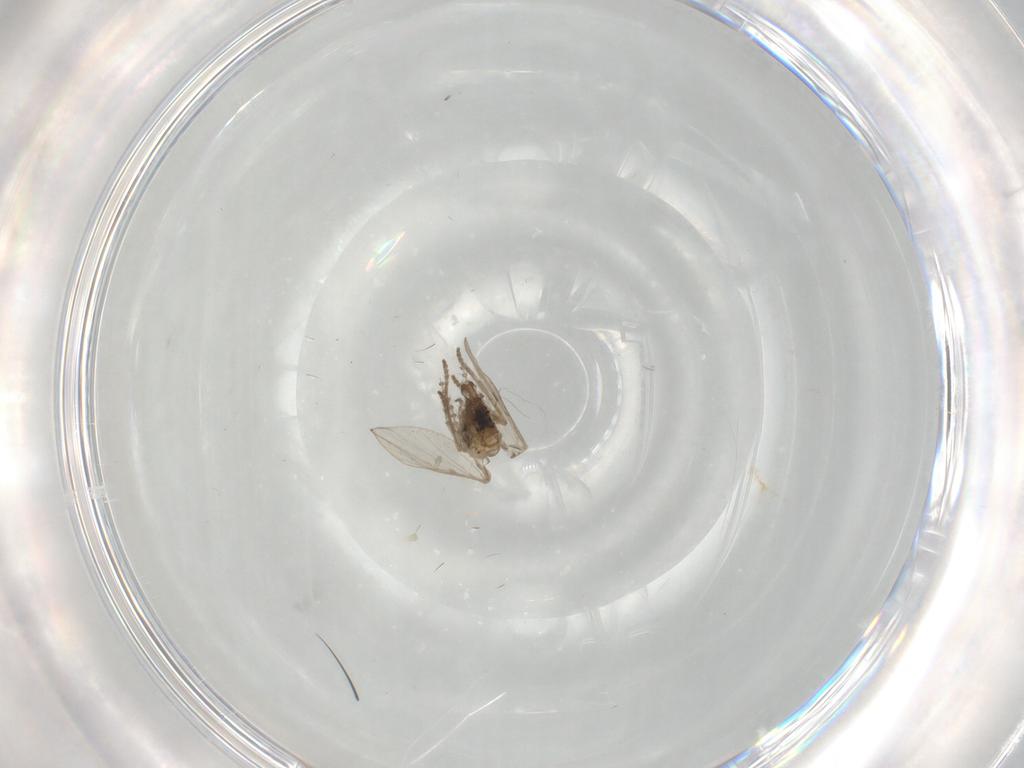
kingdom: Animalia
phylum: Arthropoda
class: Insecta
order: Diptera
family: Psychodidae
